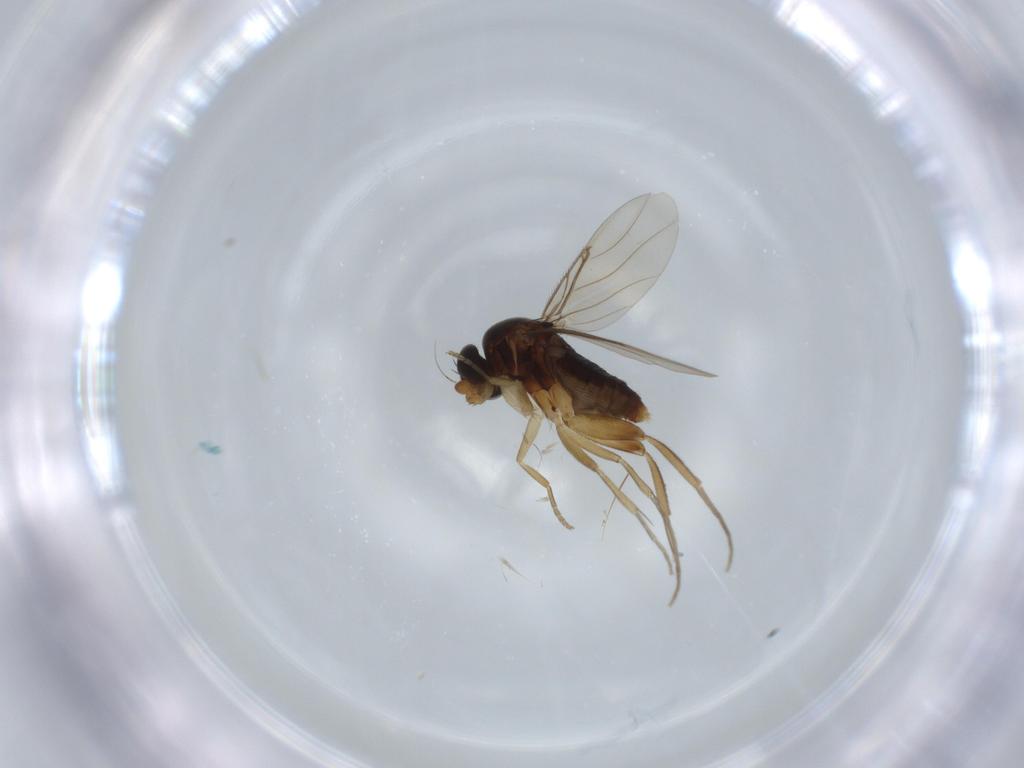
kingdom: Animalia
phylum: Arthropoda
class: Insecta
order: Diptera
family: Phoridae
